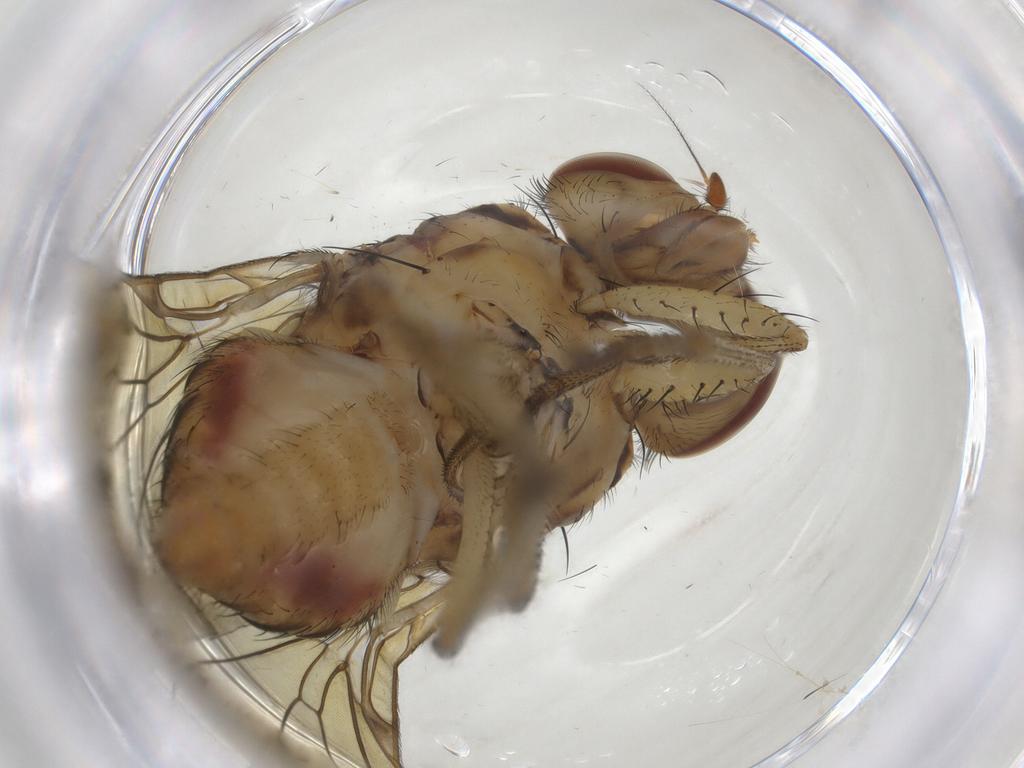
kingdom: Animalia
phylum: Arthropoda
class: Insecta
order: Diptera
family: Chironomidae
